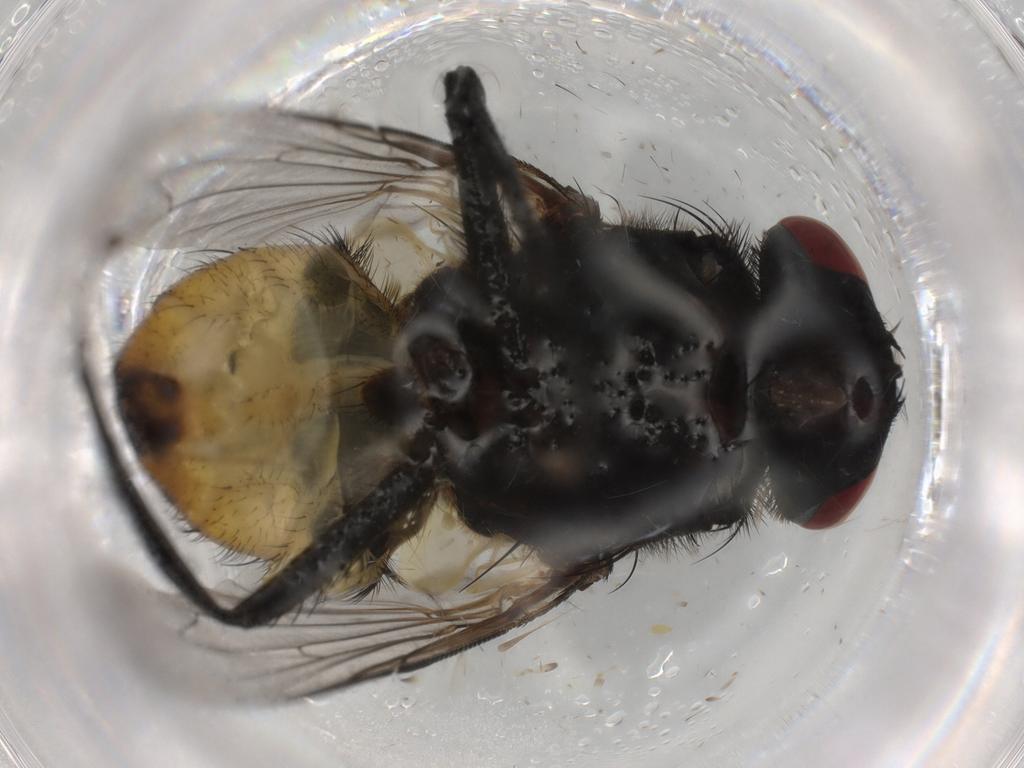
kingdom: Animalia
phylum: Arthropoda
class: Insecta
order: Diptera
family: Muscidae
